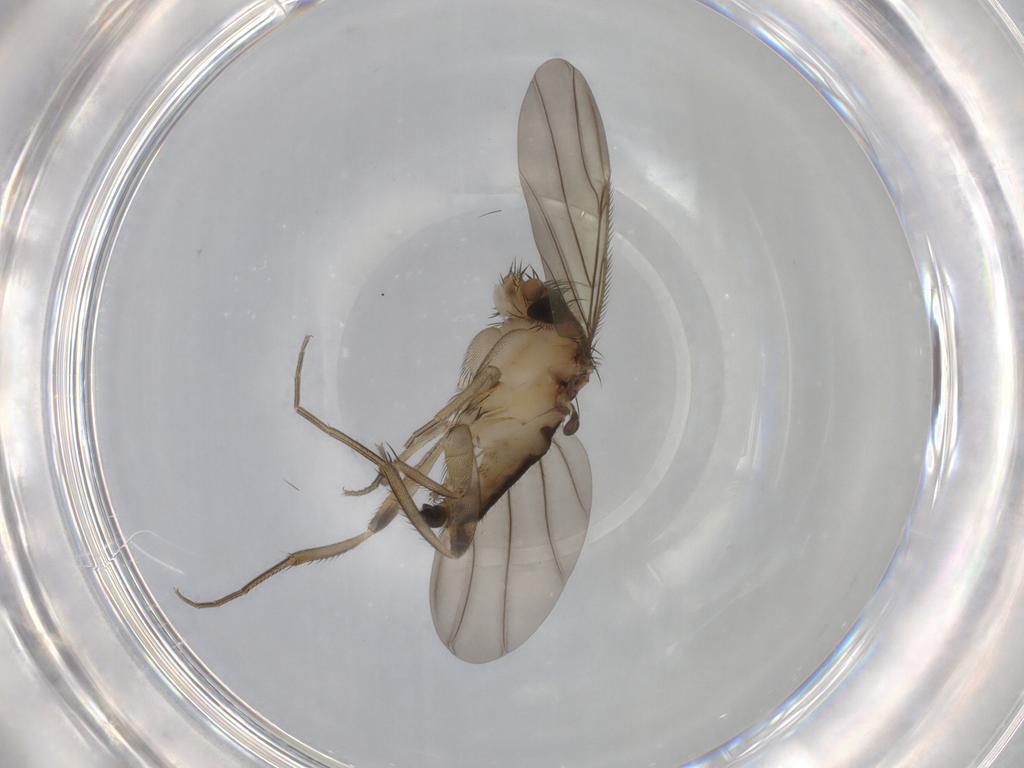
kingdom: Animalia
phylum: Arthropoda
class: Insecta
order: Diptera
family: Phoridae
